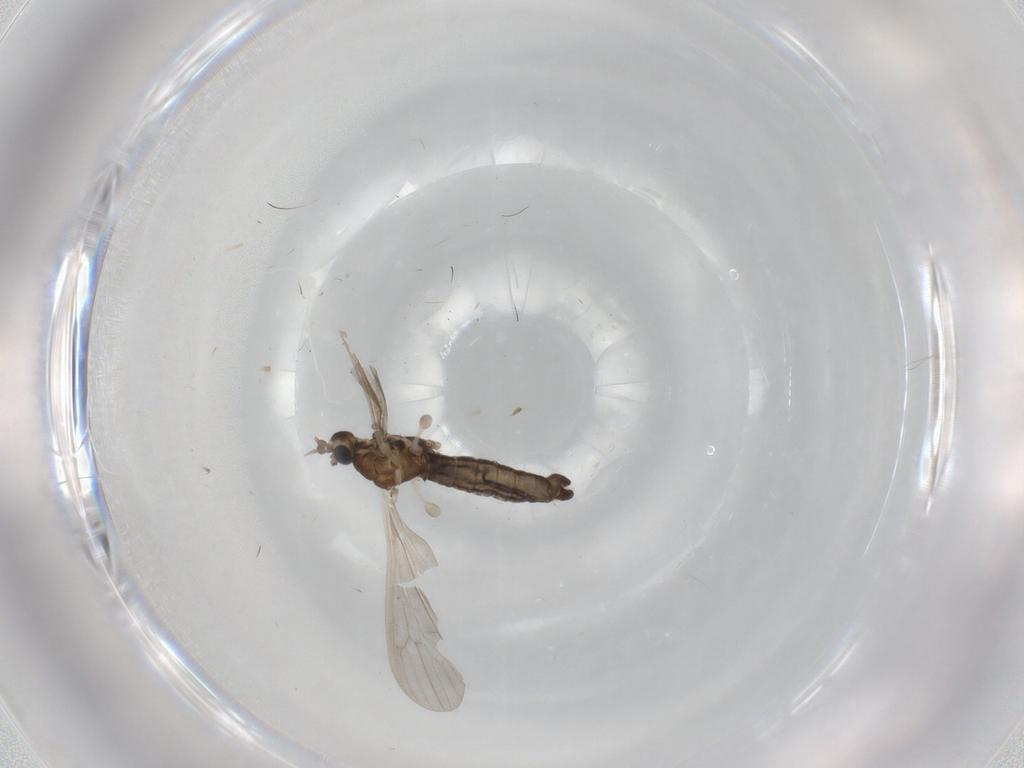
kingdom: Animalia
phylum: Arthropoda
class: Insecta
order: Diptera
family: Limoniidae
